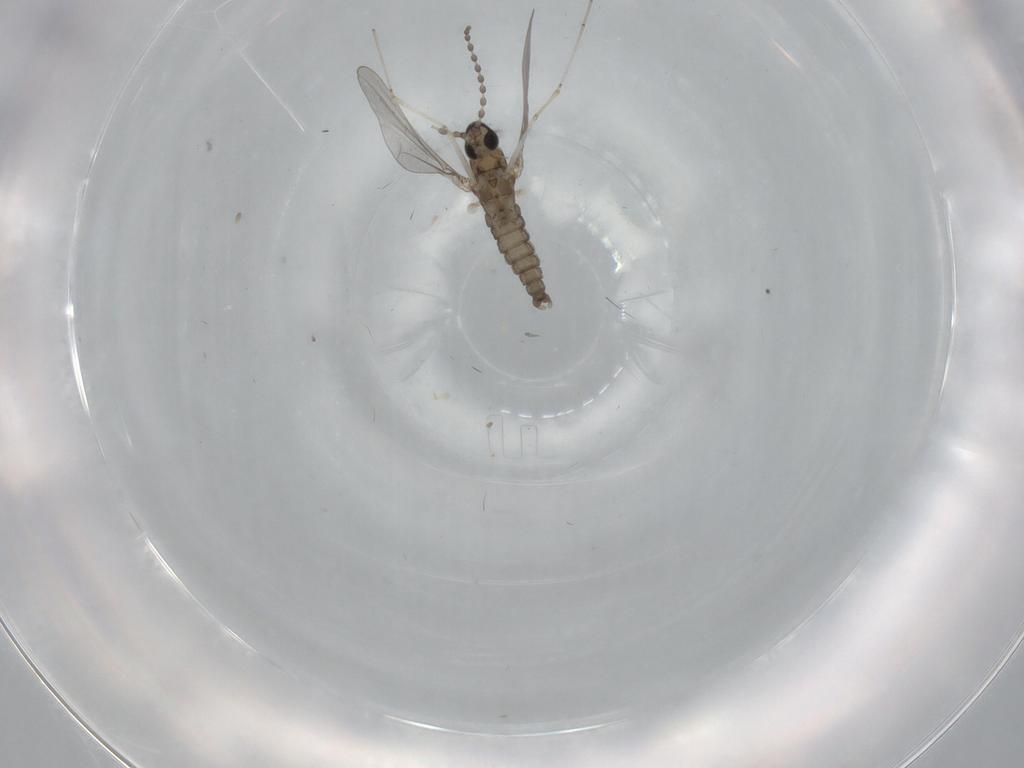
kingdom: Animalia
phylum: Arthropoda
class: Insecta
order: Diptera
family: Cecidomyiidae
